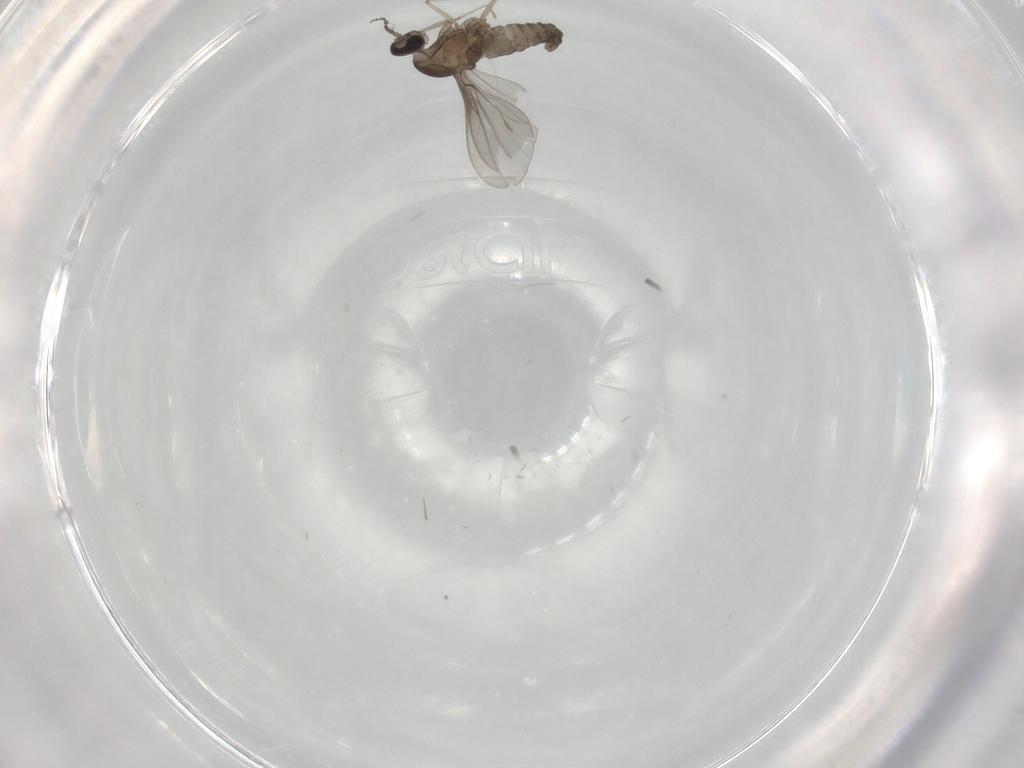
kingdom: Animalia
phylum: Arthropoda
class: Insecta
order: Diptera
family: Cecidomyiidae
